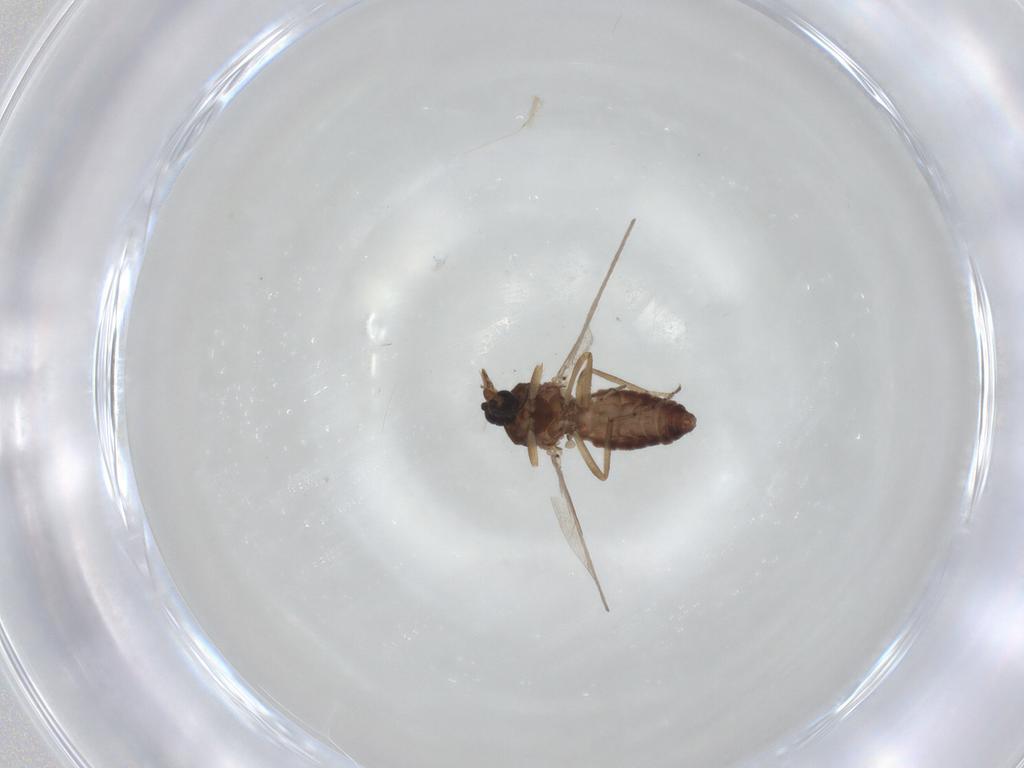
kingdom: Animalia
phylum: Arthropoda
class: Insecta
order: Diptera
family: Ceratopogonidae
